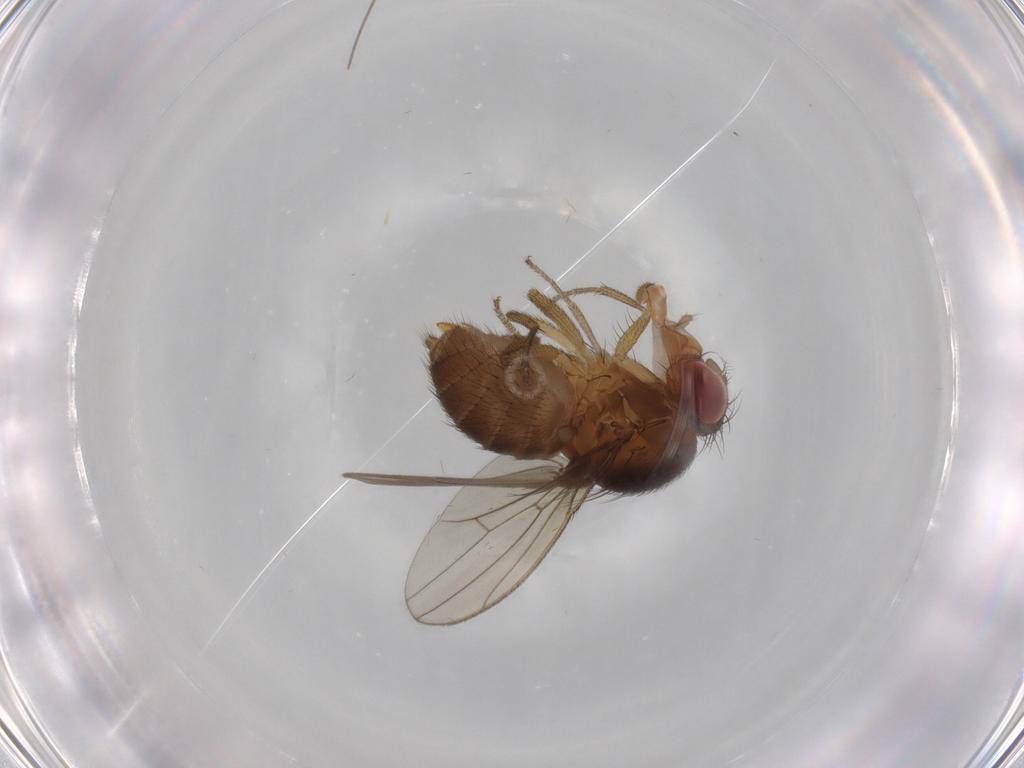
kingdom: Animalia
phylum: Arthropoda
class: Insecta
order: Diptera
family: Drosophilidae
